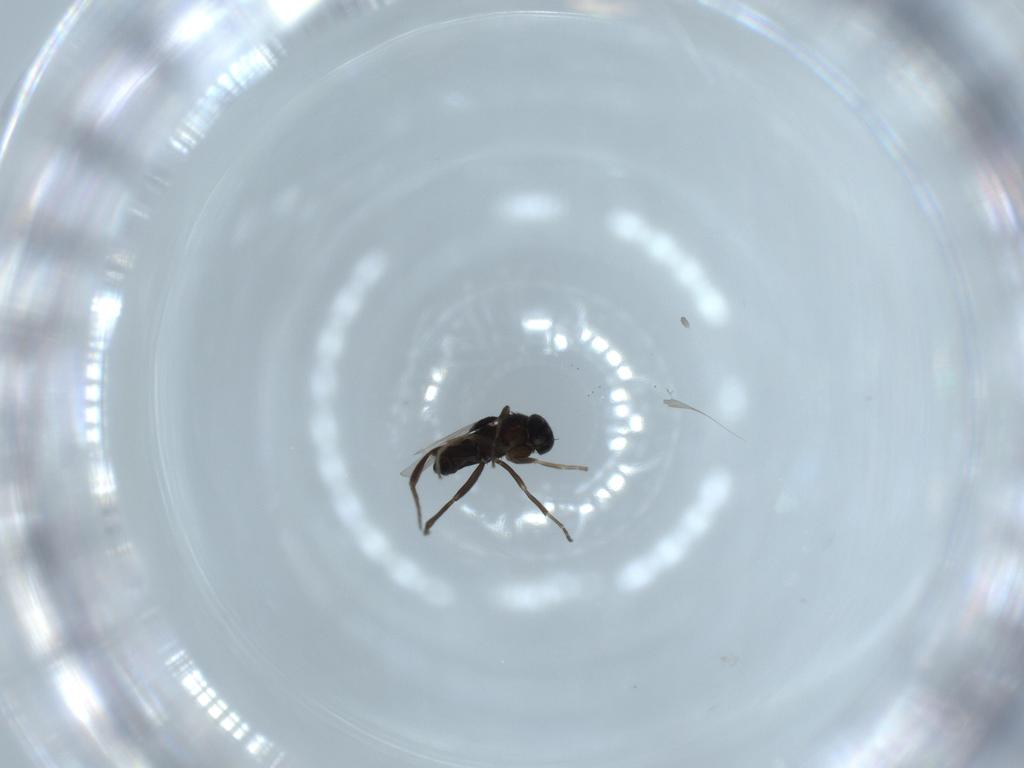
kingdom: Animalia
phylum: Arthropoda
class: Insecta
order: Diptera
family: Phoridae
